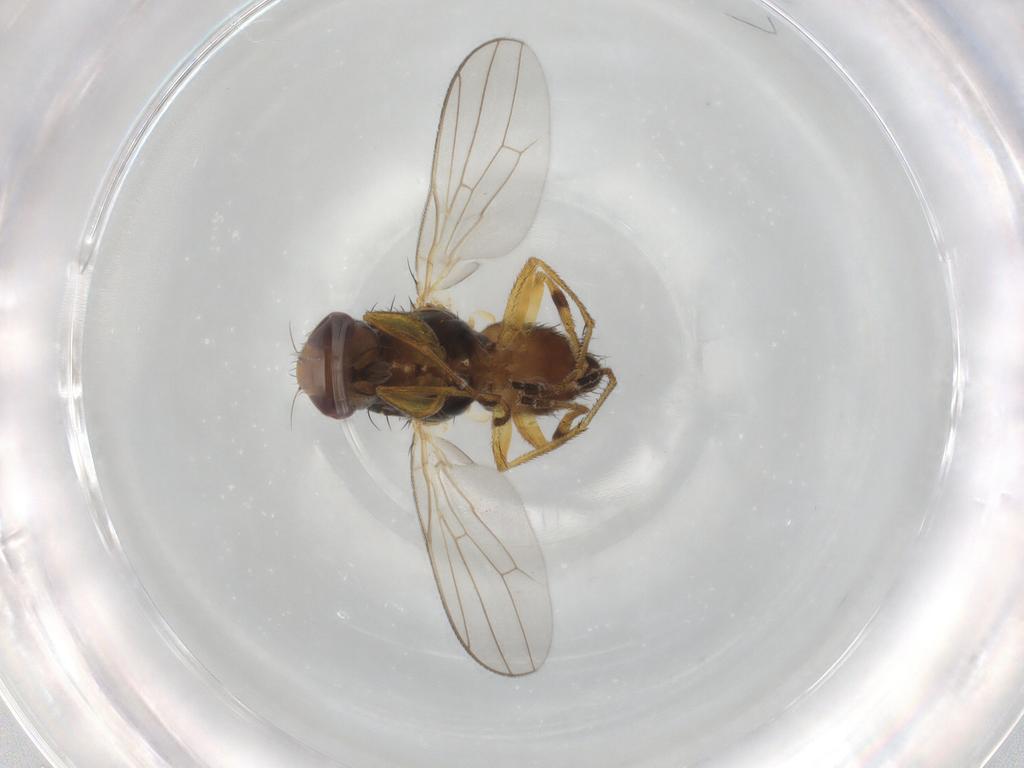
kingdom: Animalia
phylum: Arthropoda
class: Insecta
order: Diptera
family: Chloropidae
